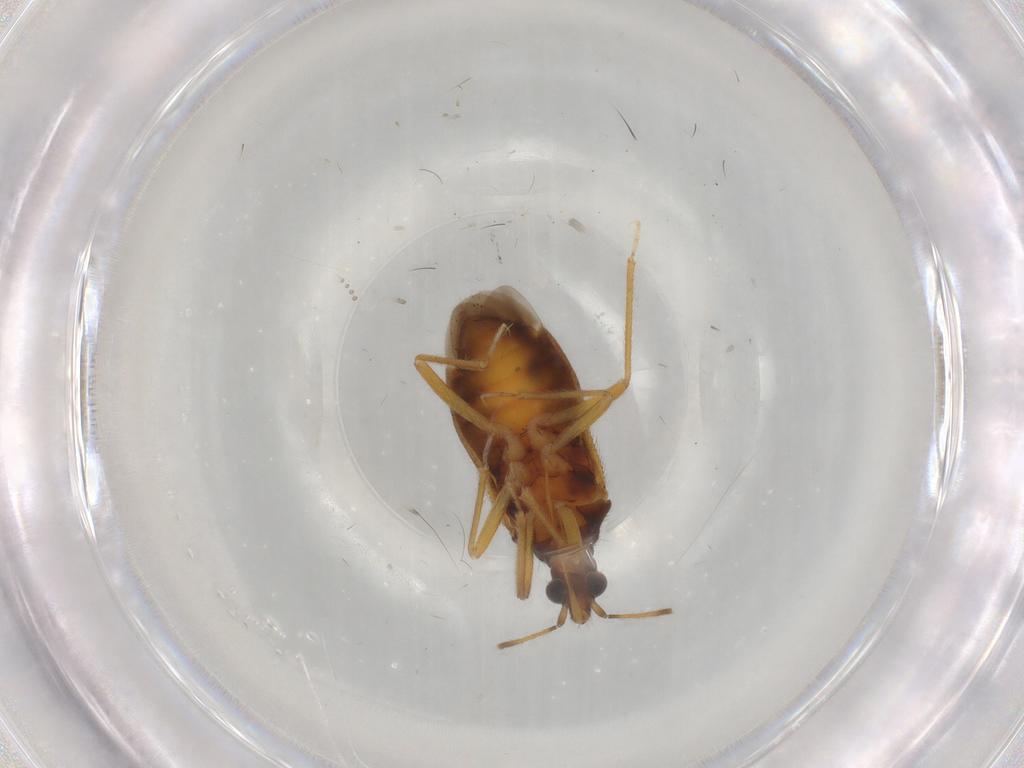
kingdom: Animalia
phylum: Arthropoda
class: Insecta
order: Hemiptera
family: Anthocoridae
